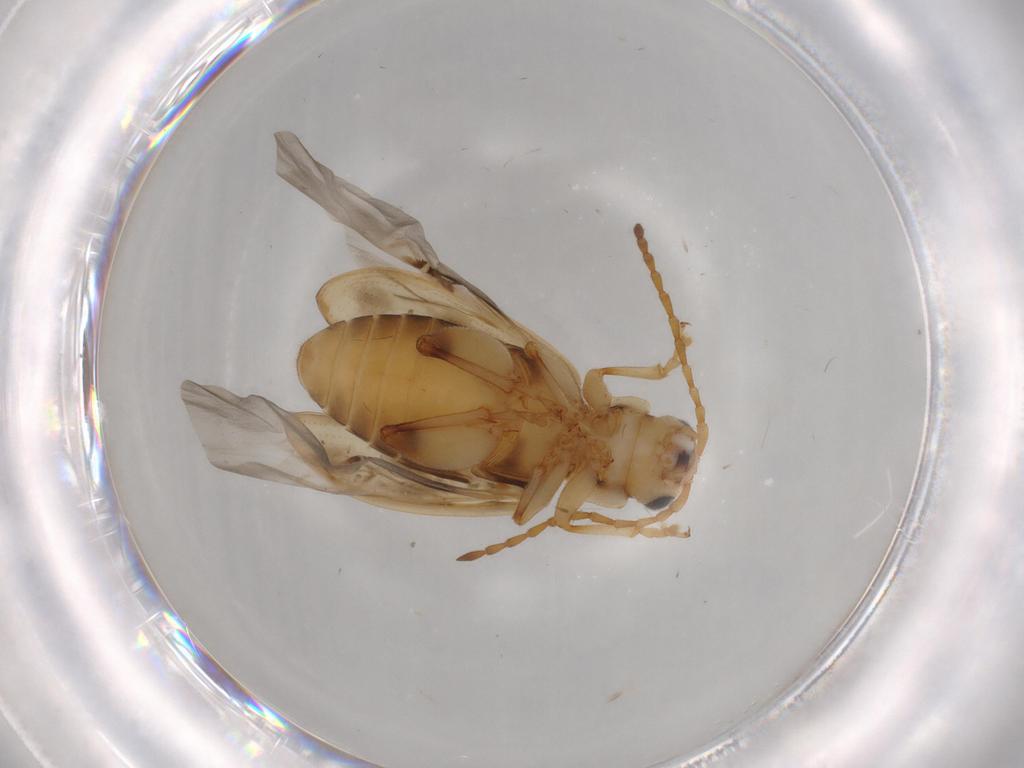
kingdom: Animalia
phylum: Arthropoda
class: Insecta
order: Coleoptera
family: Chrysomelidae
